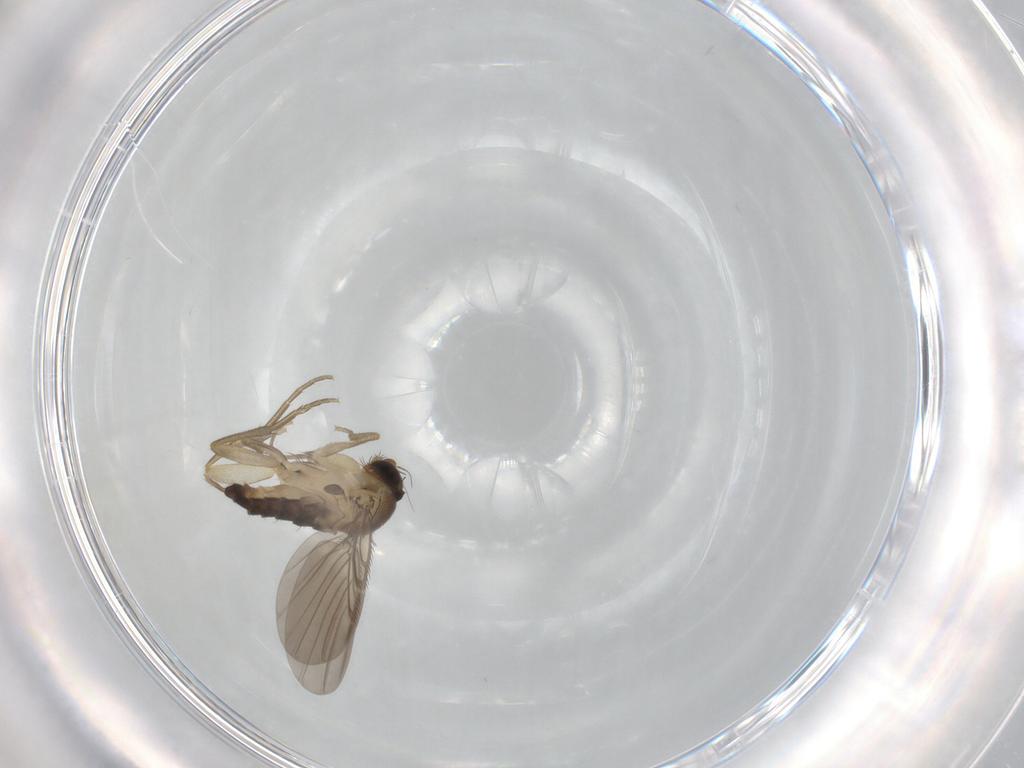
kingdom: Animalia
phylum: Arthropoda
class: Insecta
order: Diptera
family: Phoridae
